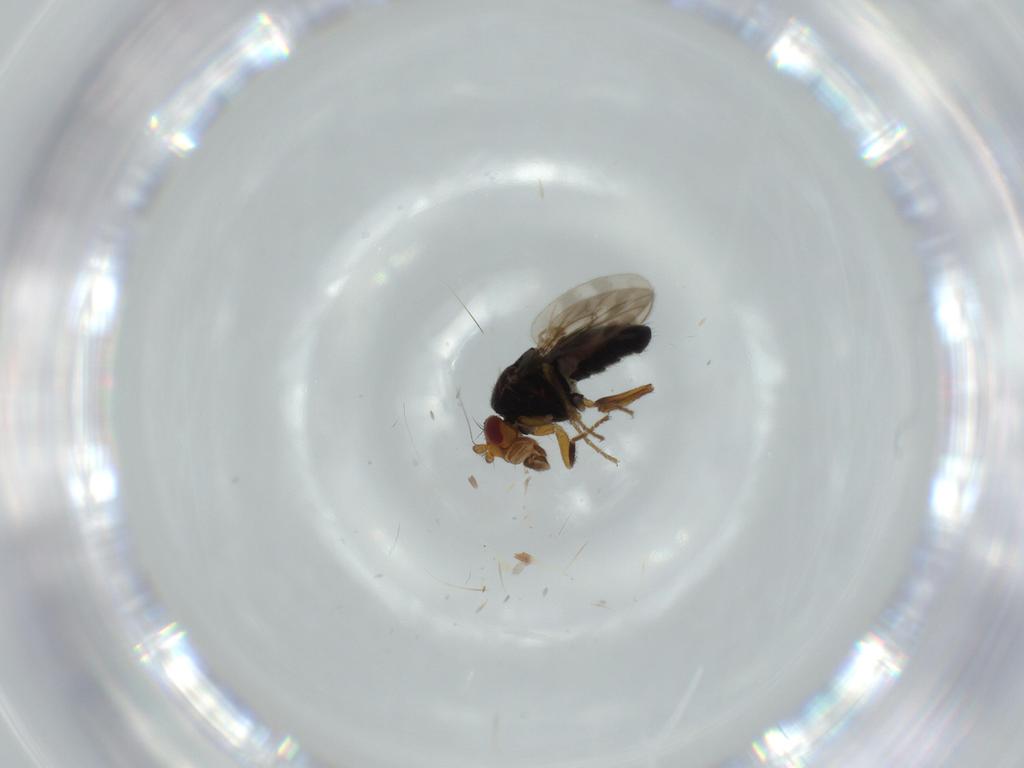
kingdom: Animalia
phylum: Arthropoda
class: Insecta
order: Diptera
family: Sphaeroceridae
